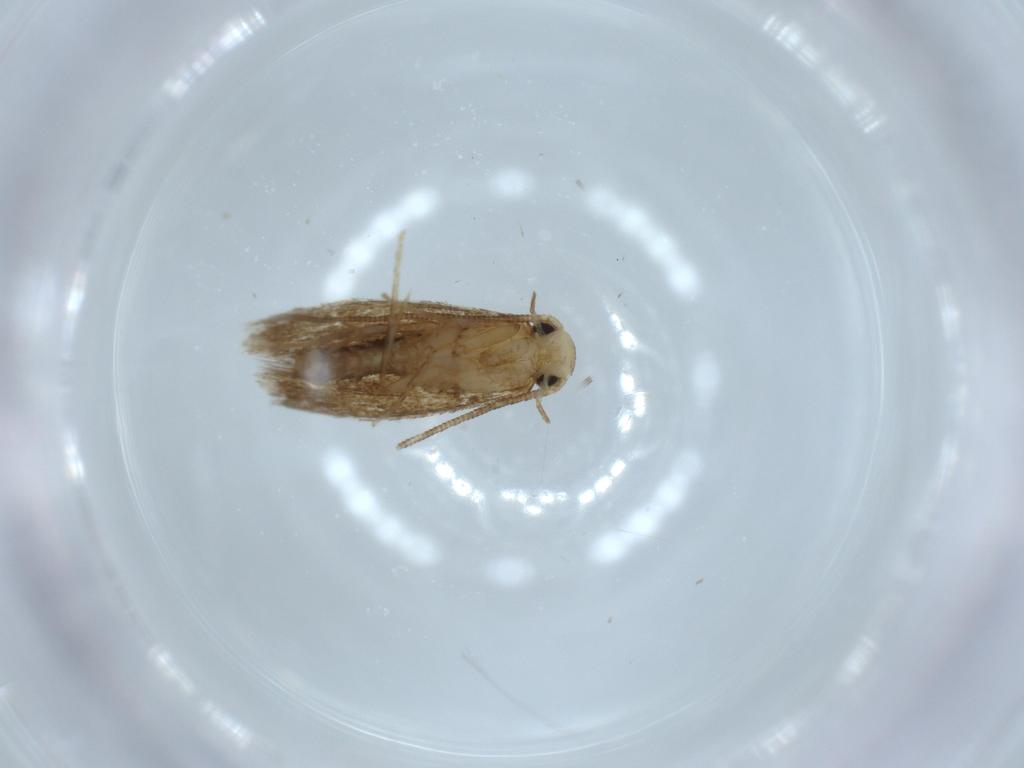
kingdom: Animalia
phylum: Arthropoda
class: Insecta
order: Lepidoptera
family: Tineidae
